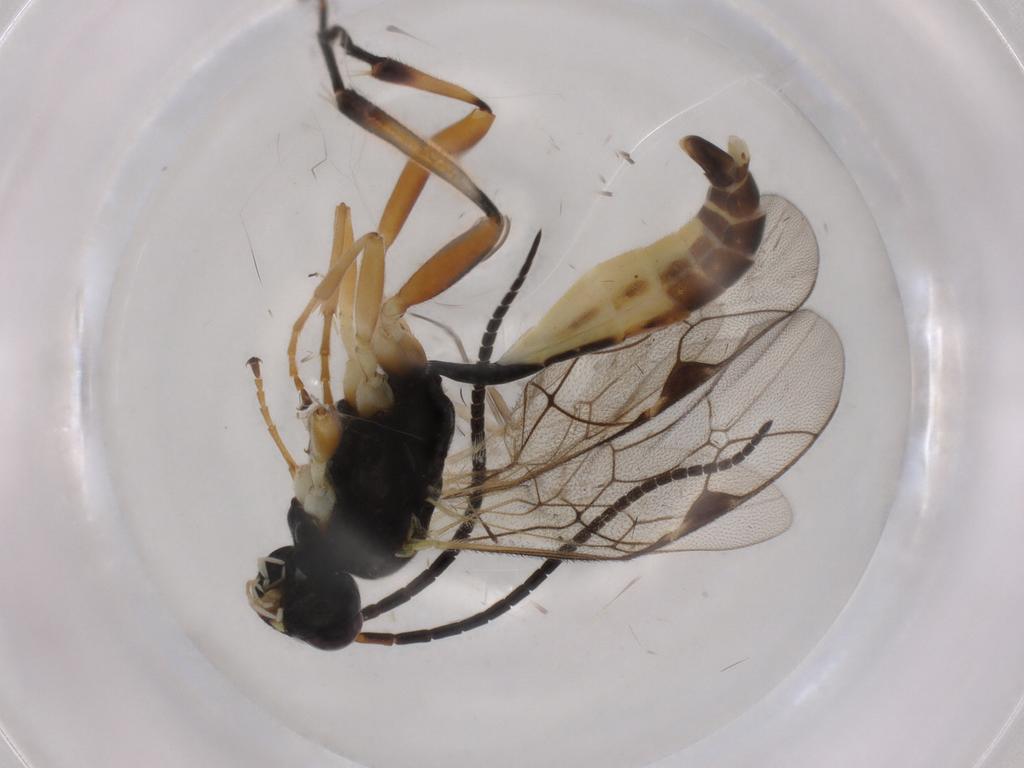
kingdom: Animalia
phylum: Arthropoda
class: Insecta
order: Hymenoptera
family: Ichneumonidae
